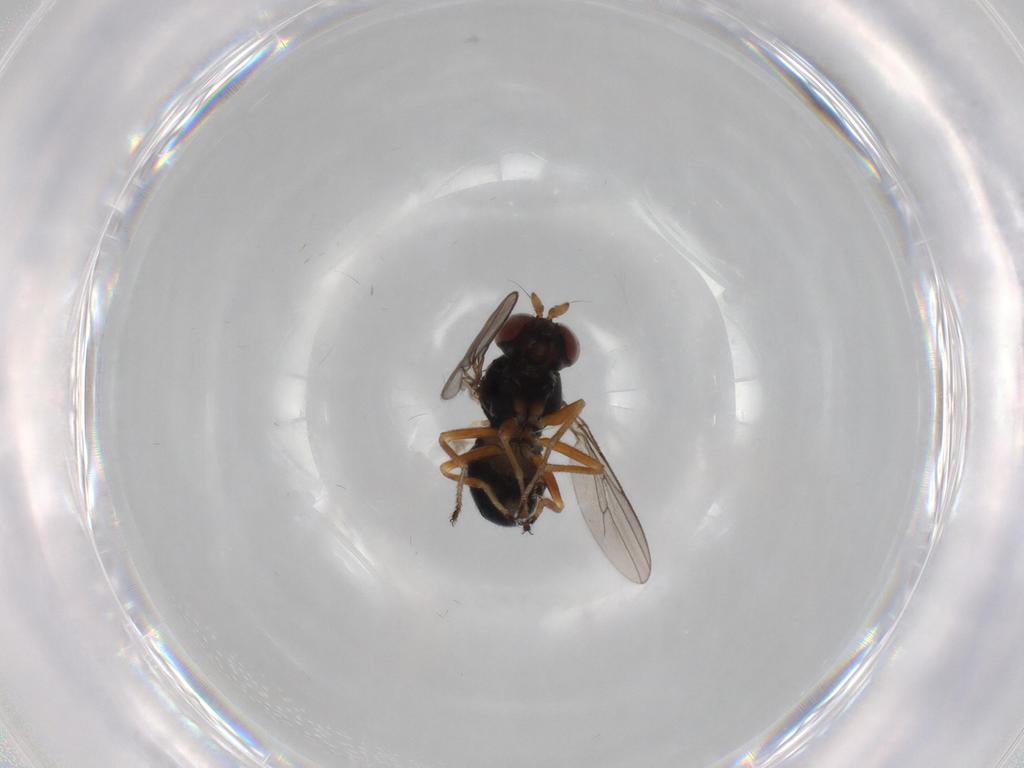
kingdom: Animalia
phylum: Arthropoda
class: Insecta
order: Diptera
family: Ephydridae
